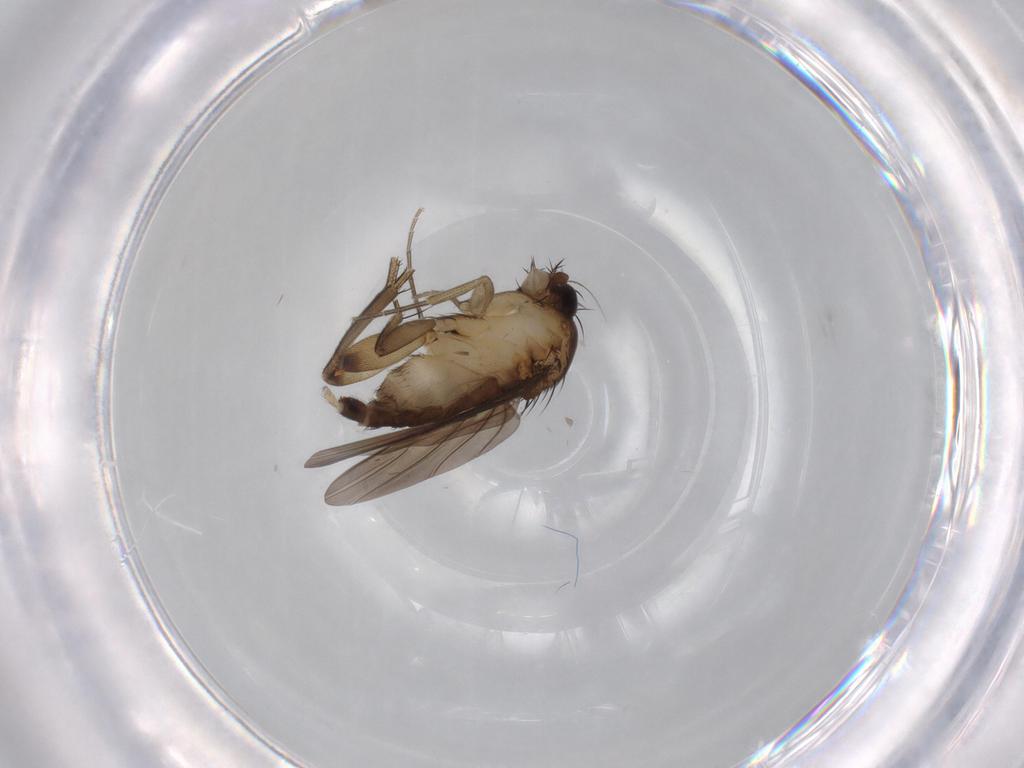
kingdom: Animalia
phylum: Arthropoda
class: Insecta
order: Diptera
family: Phoridae
